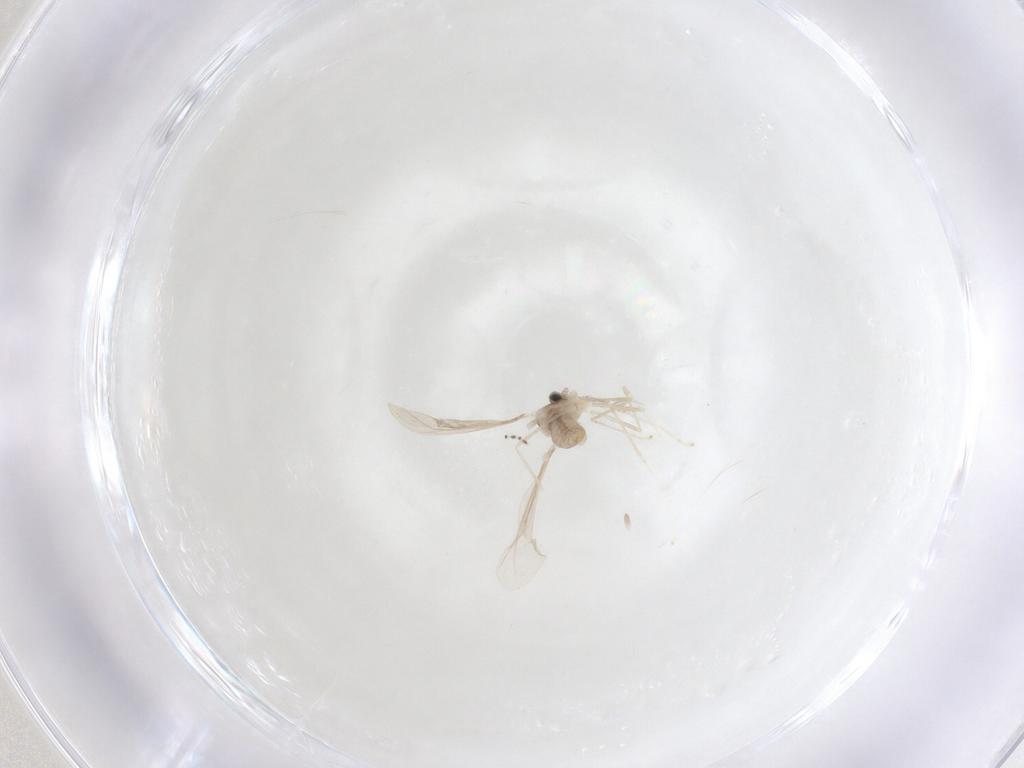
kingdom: Animalia
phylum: Arthropoda
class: Insecta
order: Diptera
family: Cecidomyiidae
